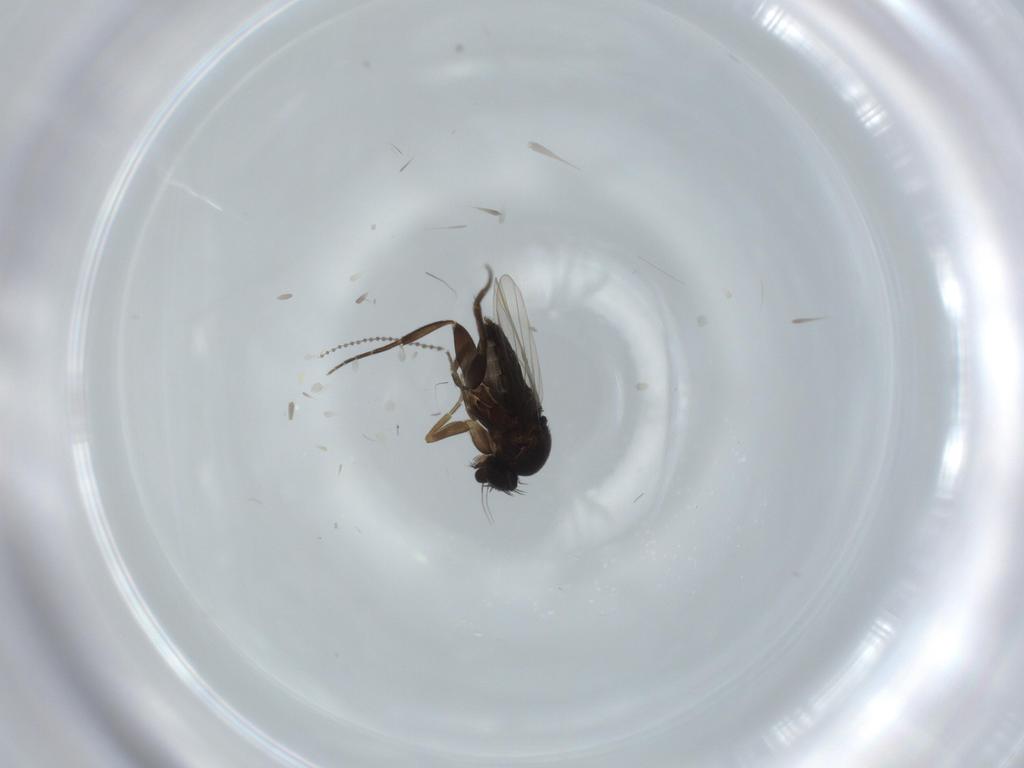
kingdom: Animalia
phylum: Arthropoda
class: Insecta
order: Diptera
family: Phoridae
